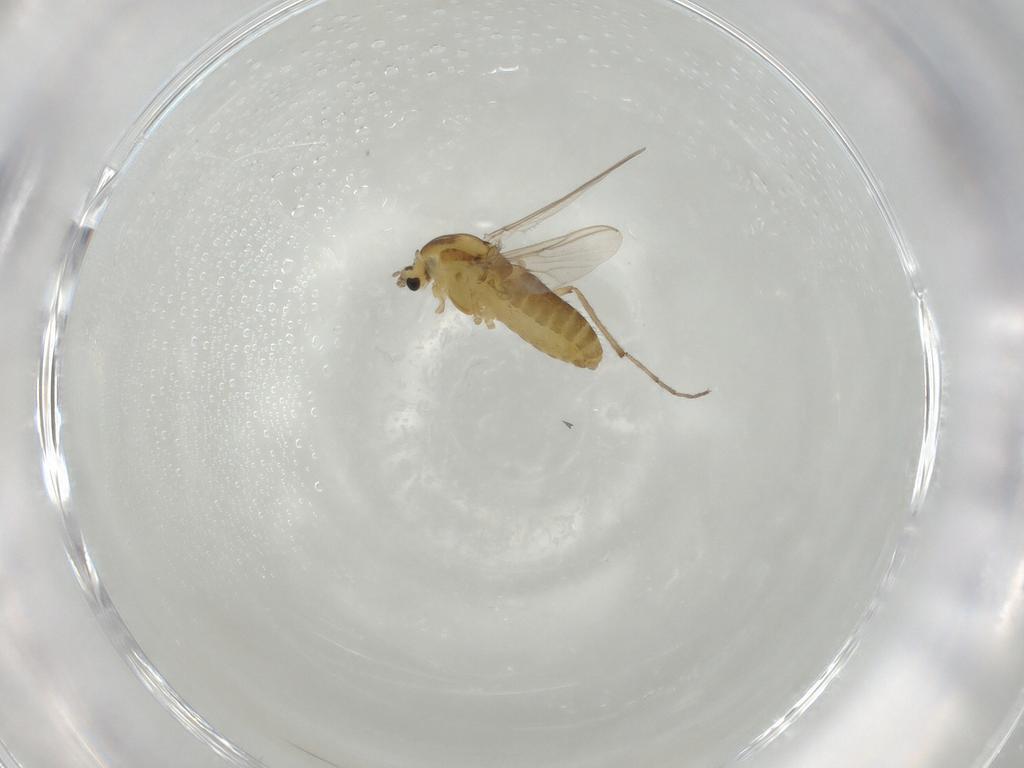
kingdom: Animalia
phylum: Arthropoda
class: Insecta
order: Diptera
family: Chironomidae
